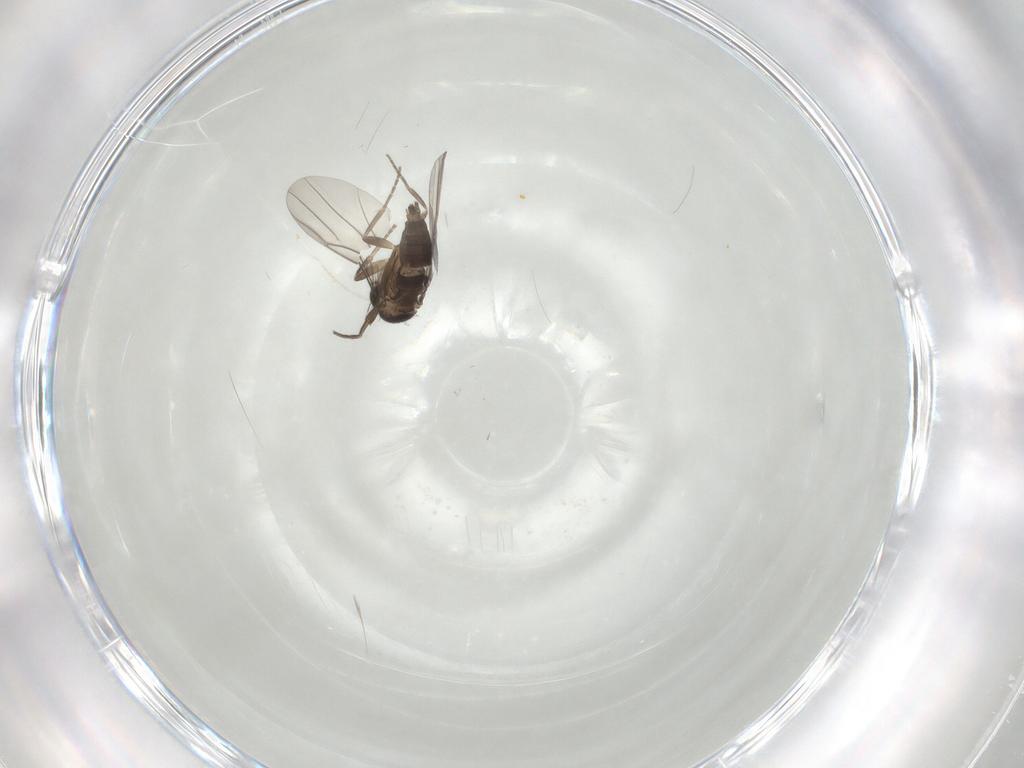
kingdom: Animalia
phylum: Arthropoda
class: Insecta
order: Diptera
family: Phoridae
